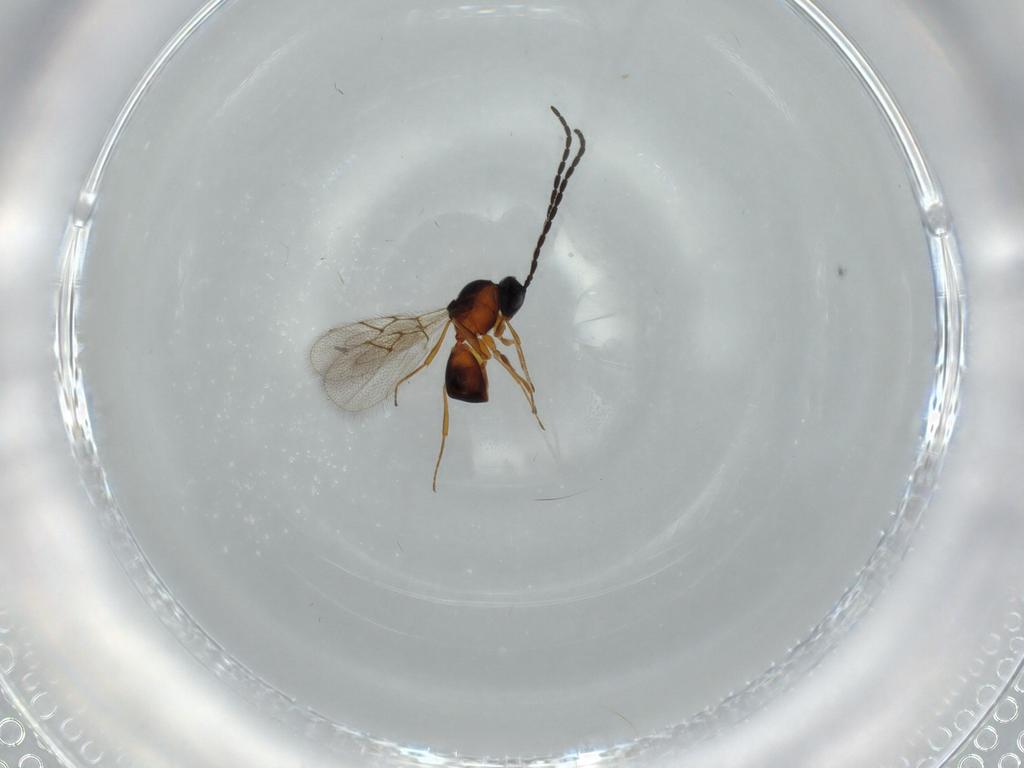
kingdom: Animalia
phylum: Arthropoda
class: Insecta
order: Hymenoptera
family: Figitidae
